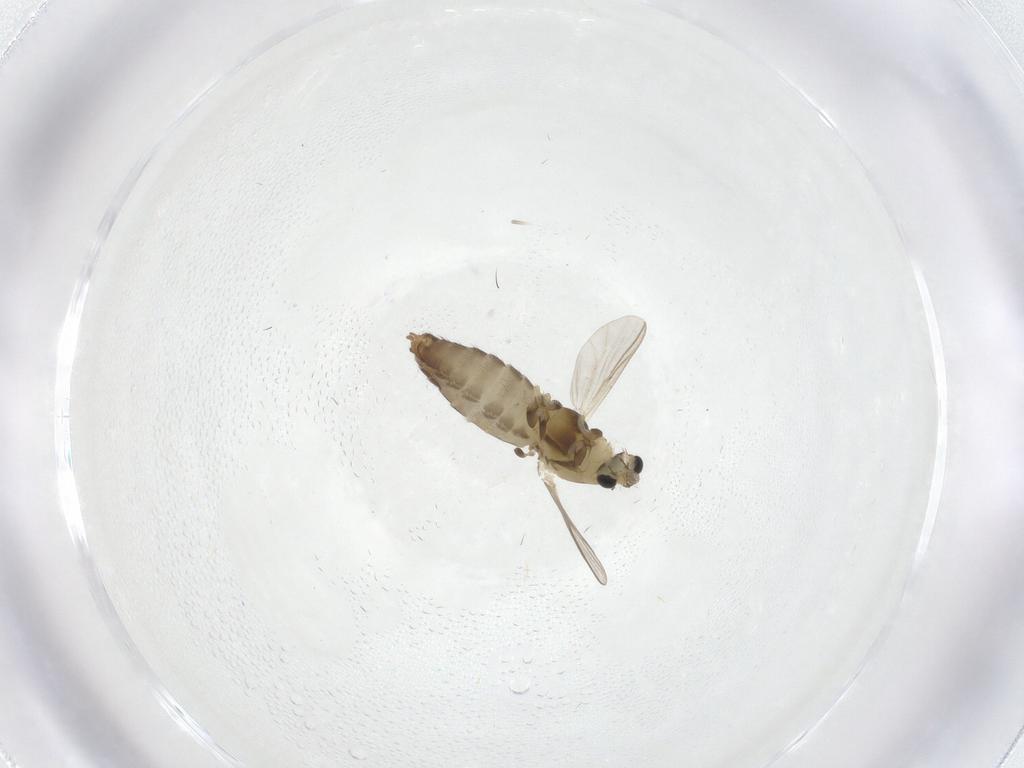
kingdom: Animalia
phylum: Arthropoda
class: Insecta
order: Diptera
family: Chironomidae
